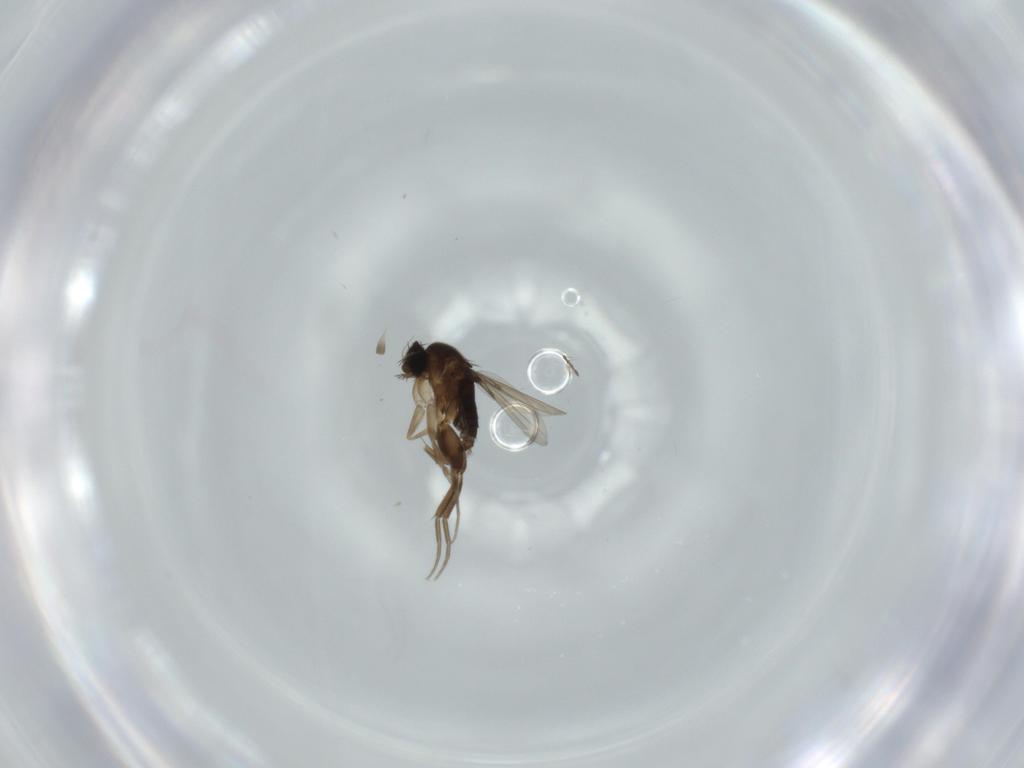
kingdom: Animalia
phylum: Arthropoda
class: Insecta
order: Diptera
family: Phoridae
